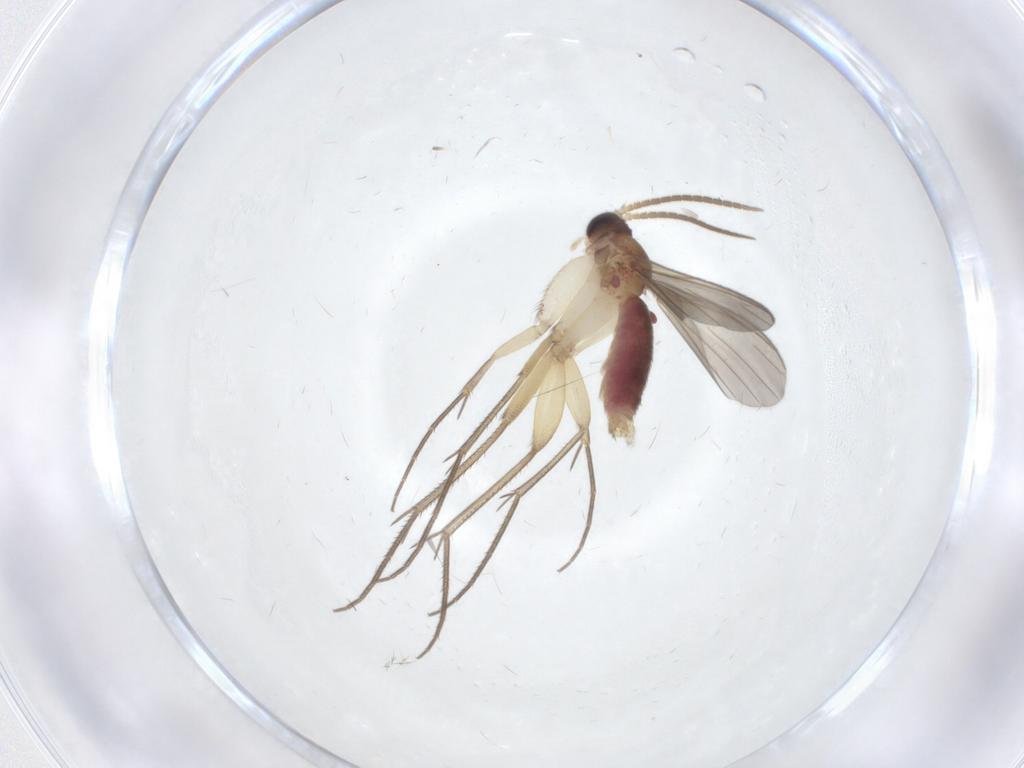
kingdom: Animalia
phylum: Arthropoda
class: Insecta
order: Diptera
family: Mycetophilidae
